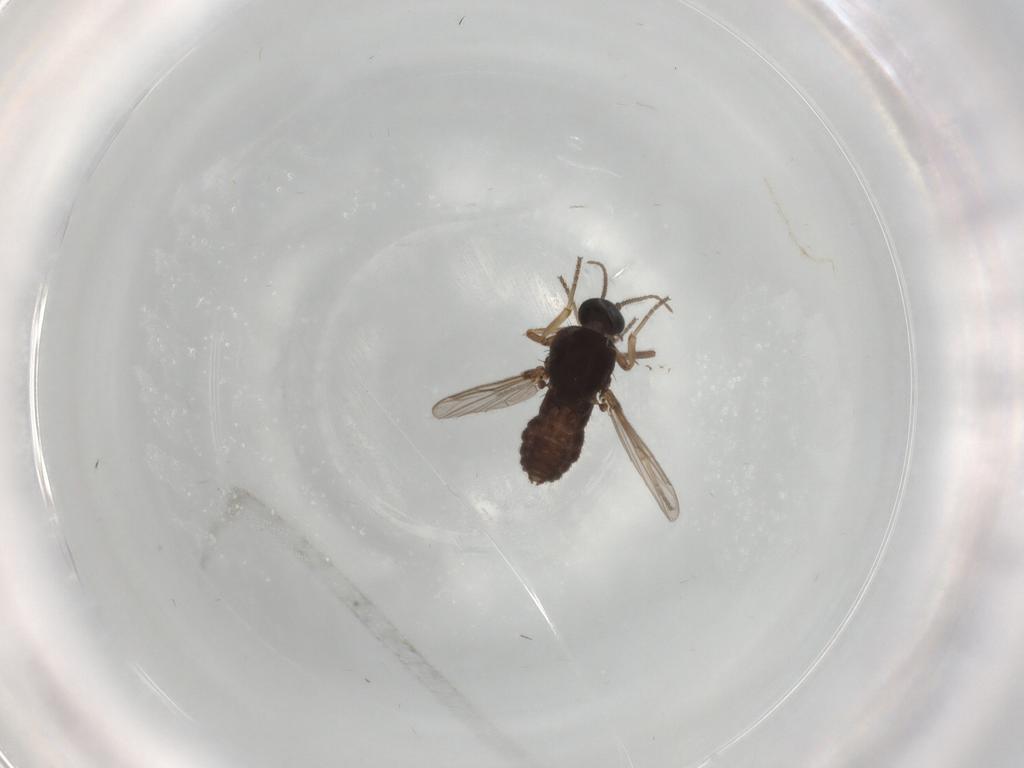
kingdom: Animalia
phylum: Arthropoda
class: Insecta
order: Diptera
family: Ceratopogonidae
